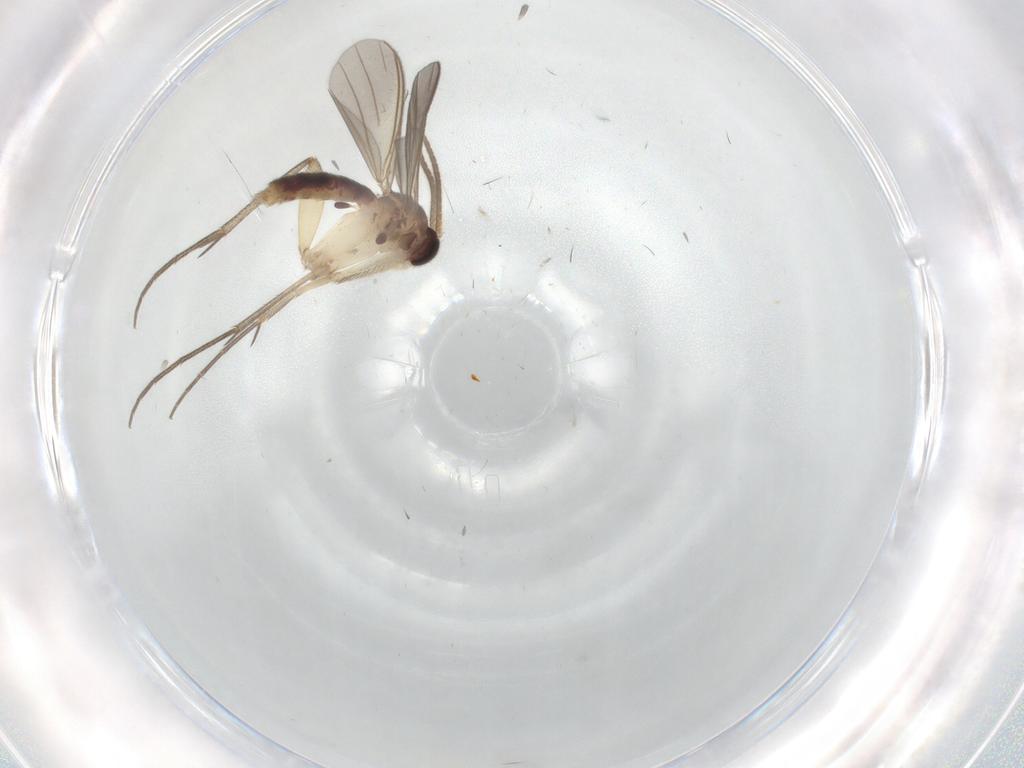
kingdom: Animalia
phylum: Arthropoda
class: Insecta
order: Diptera
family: Mycetophilidae
